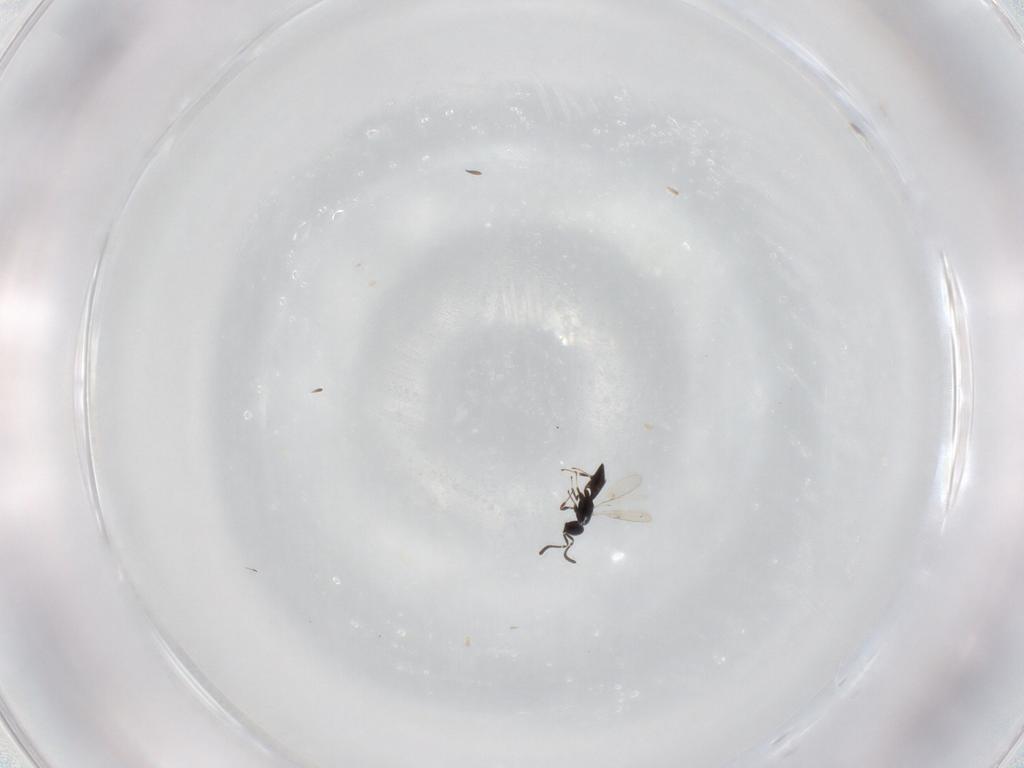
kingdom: Animalia
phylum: Arthropoda
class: Insecta
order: Hymenoptera
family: Scelionidae
